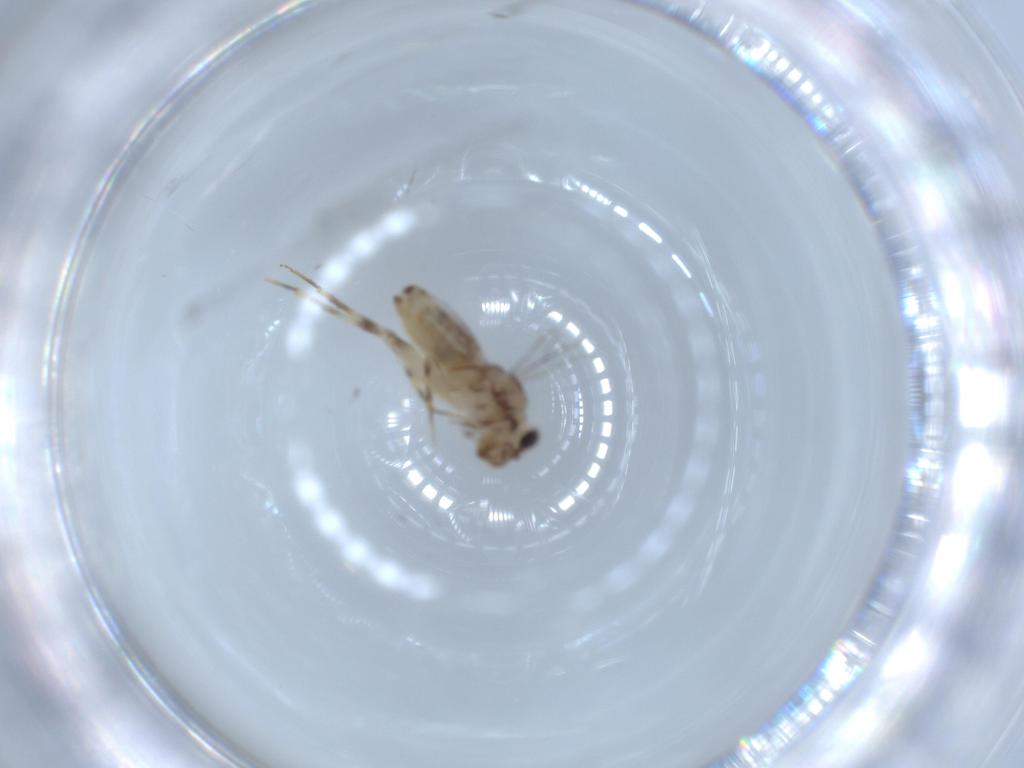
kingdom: Animalia
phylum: Arthropoda
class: Insecta
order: Psocodea
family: Lepidopsocidae
